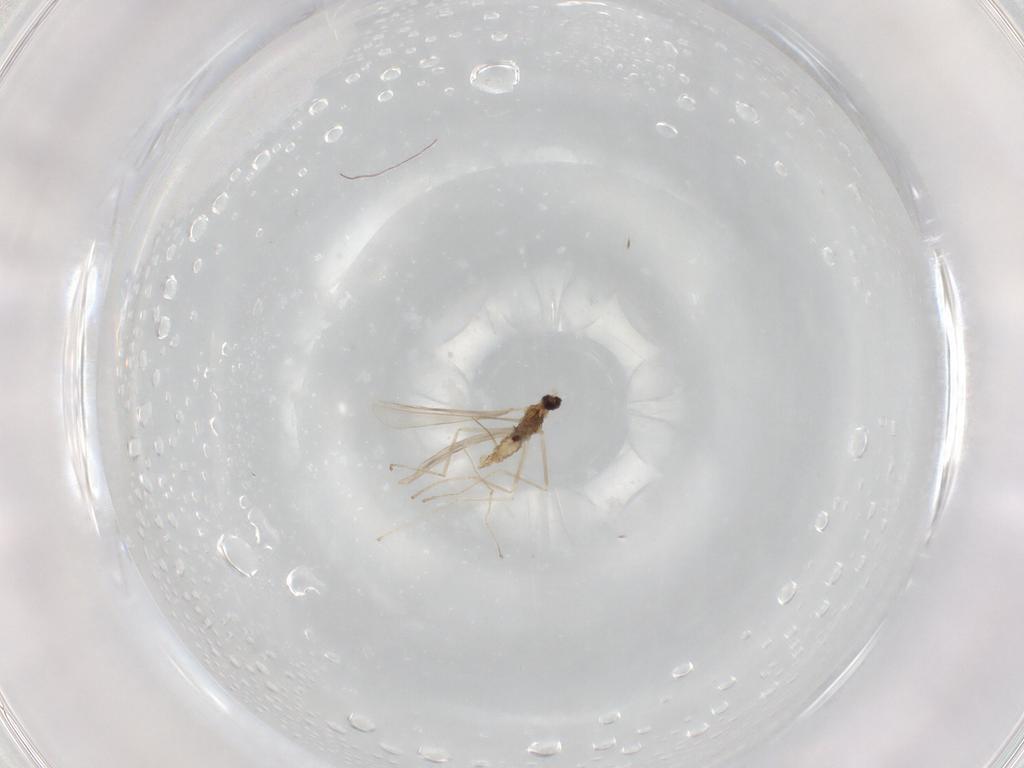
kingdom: Animalia
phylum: Arthropoda
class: Insecta
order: Diptera
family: Cecidomyiidae
